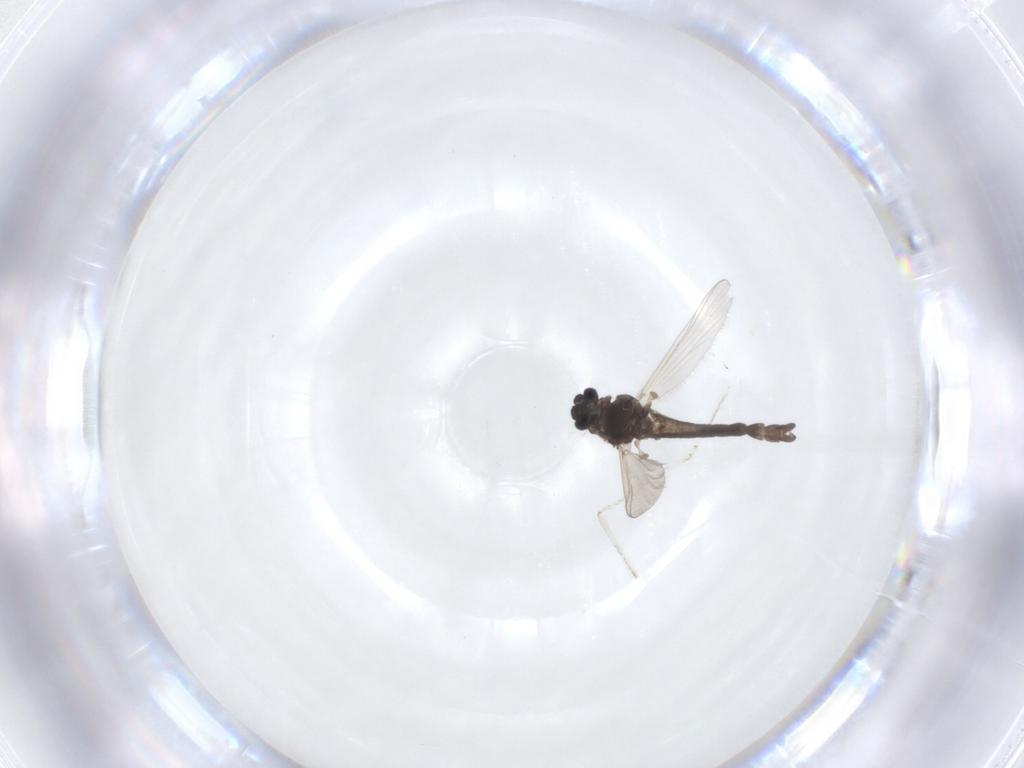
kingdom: Animalia
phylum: Arthropoda
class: Insecta
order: Diptera
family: Chironomidae
